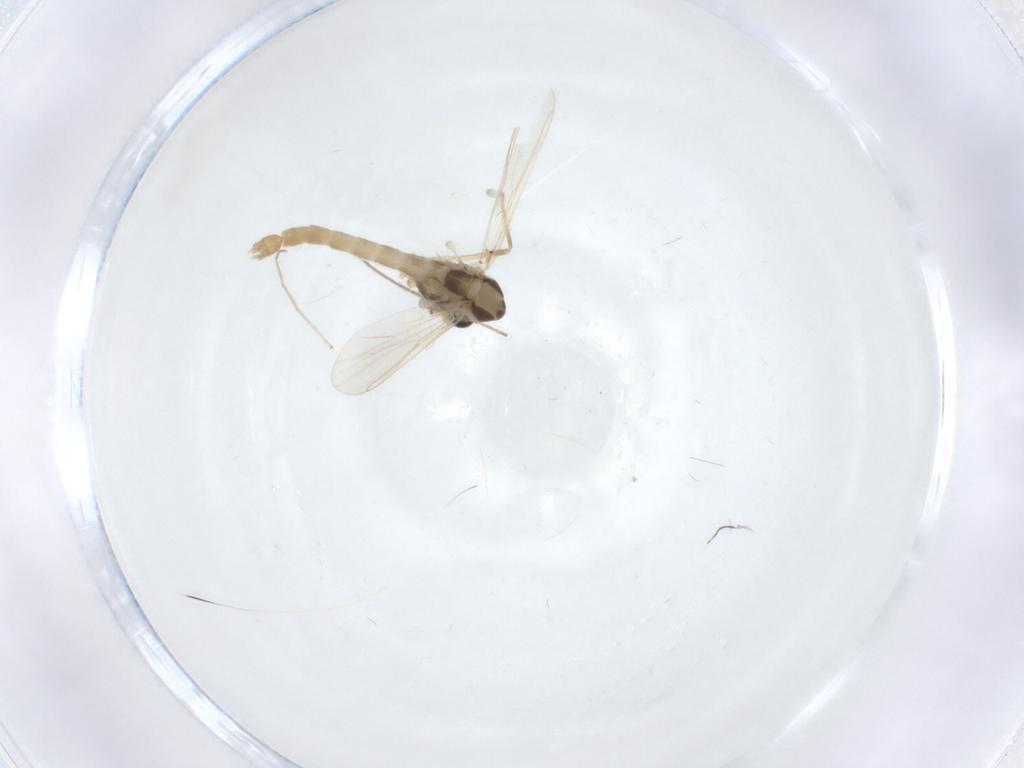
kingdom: Animalia
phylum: Arthropoda
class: Insecta
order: Diptera
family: Chironomidae
